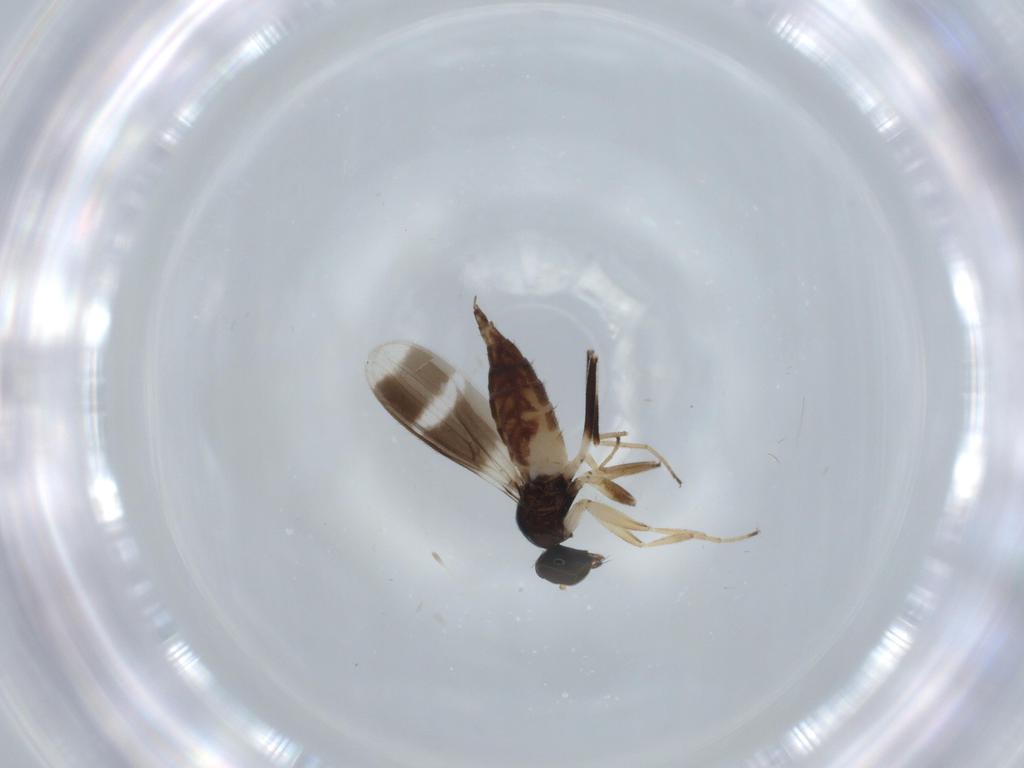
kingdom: Animalia
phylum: Arthropoda
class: Insecta
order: Diptera
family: Hybotidae
